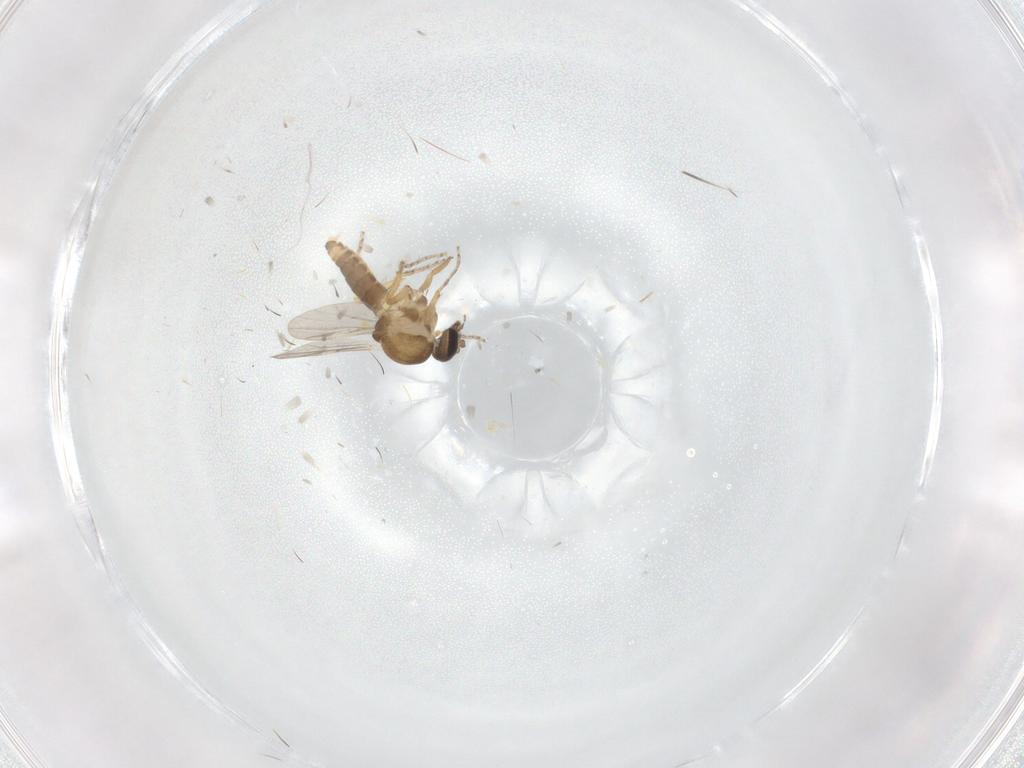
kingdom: Animalia
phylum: Arthropoda
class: Insecta
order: Diptera
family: Ceratopogonidae
